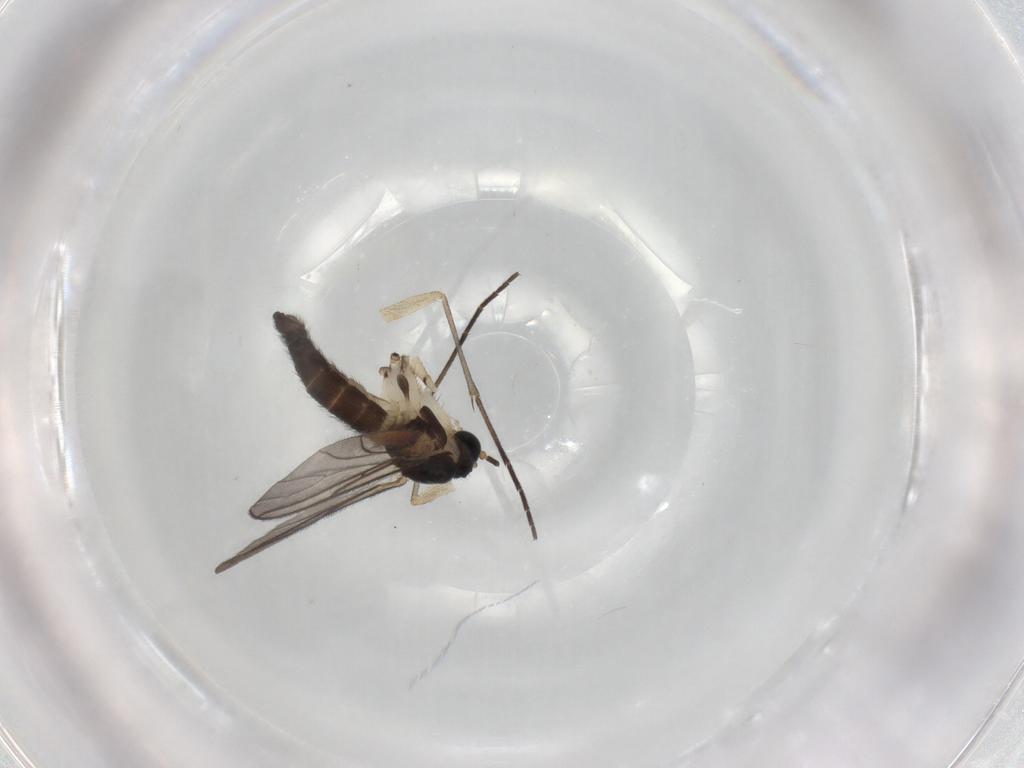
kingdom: Animalia
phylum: Arthropoda
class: Insecta
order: Diptera
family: Sciaridae
